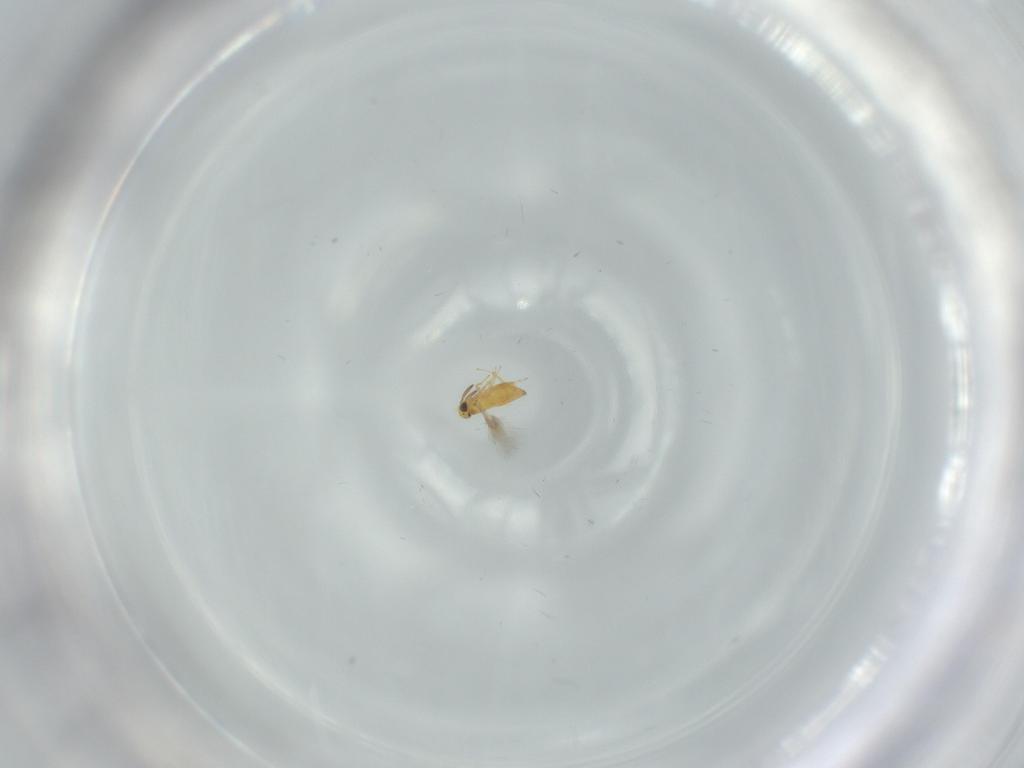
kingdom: Animalia
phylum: Arthropoda
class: Insecta
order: Hymenoptera
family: Signiphoridae
